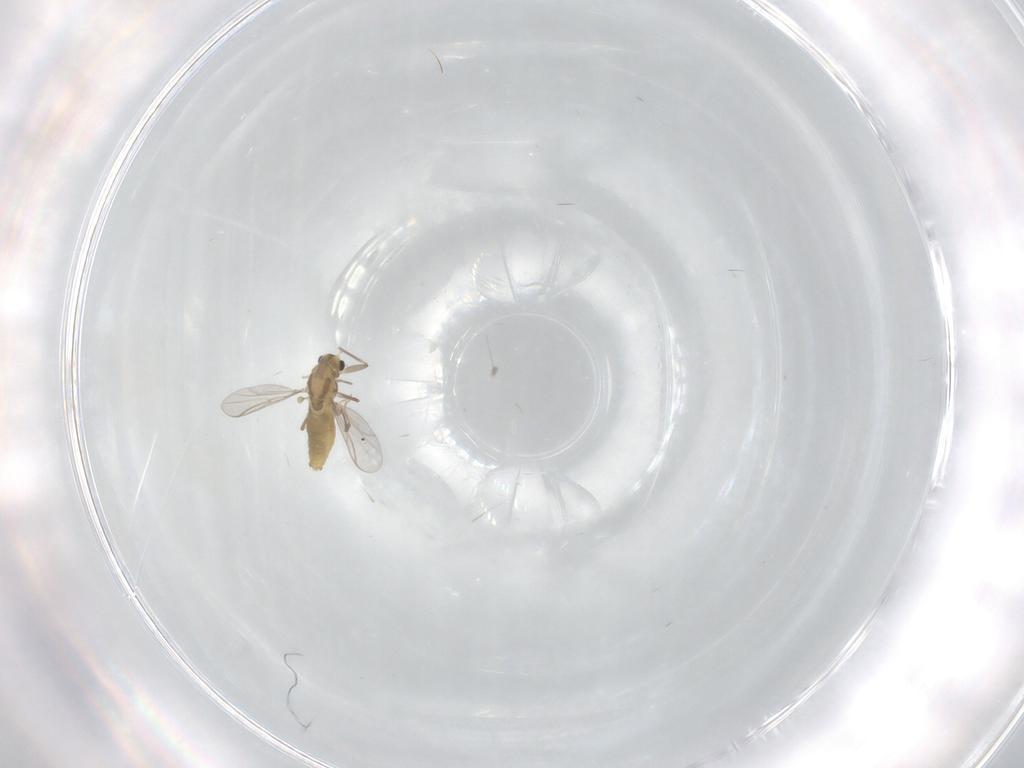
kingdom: Animalia
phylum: Arthropoda
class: Insecta
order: Diptera
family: Chironomidae
